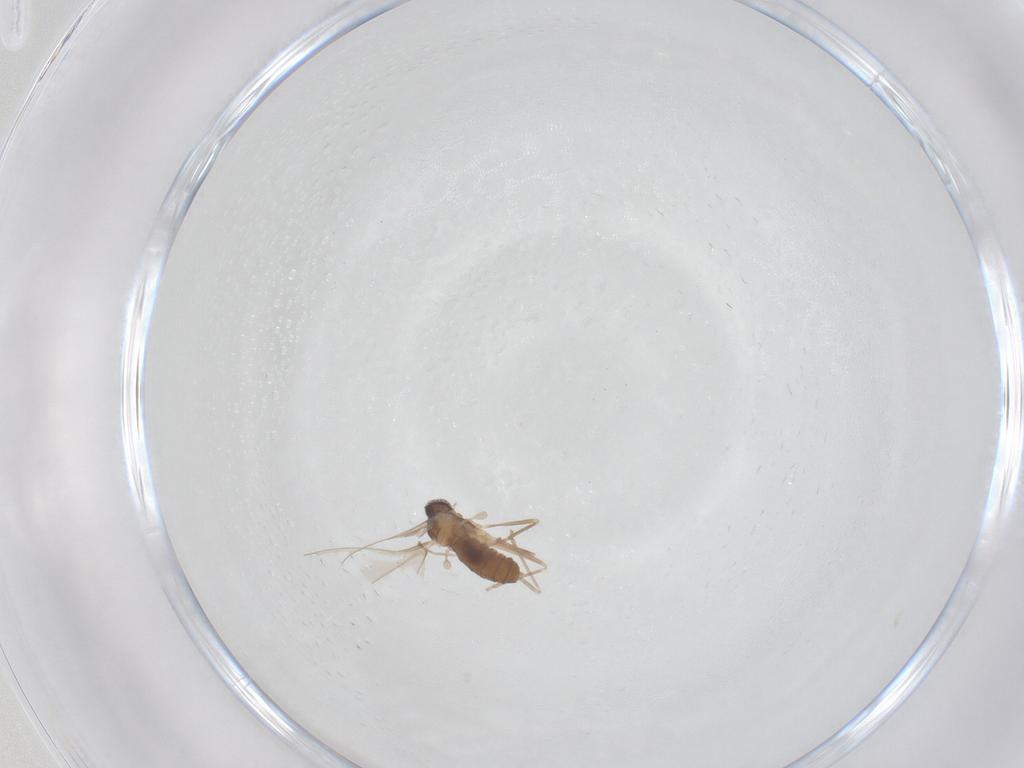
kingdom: Animalia
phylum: Arthropoda
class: Insecta
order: Diptera
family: Cecidomyiidae
